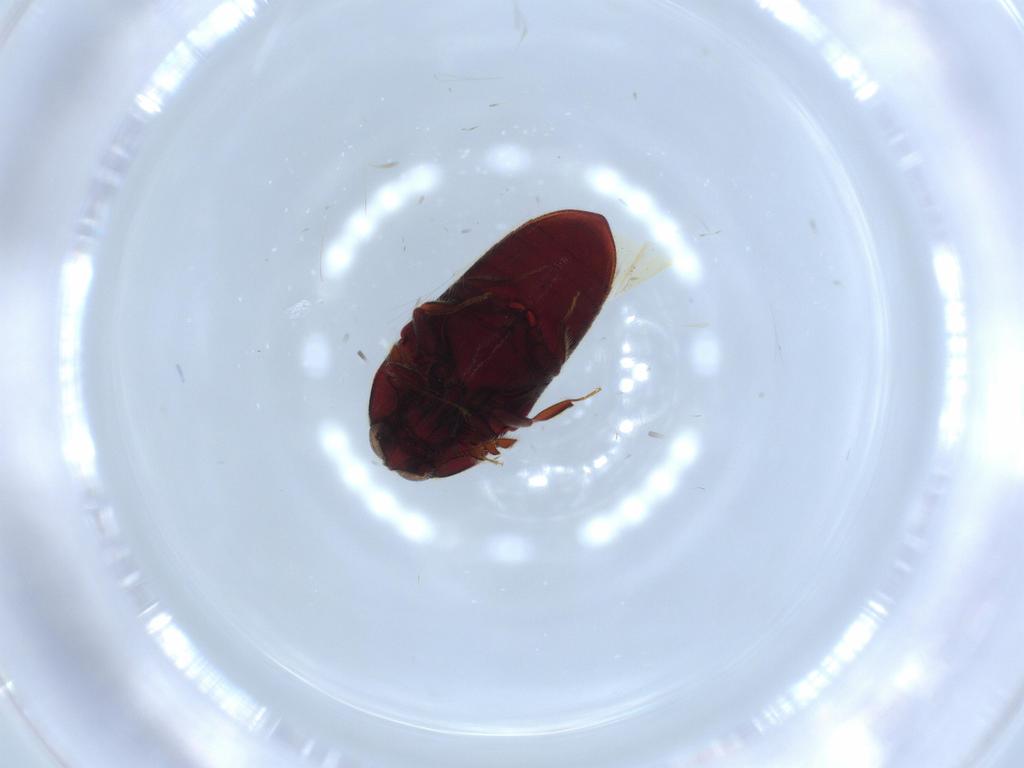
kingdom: Animalia
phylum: Arthropoda
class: Insecta
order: Coleoptera
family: Throscidae
